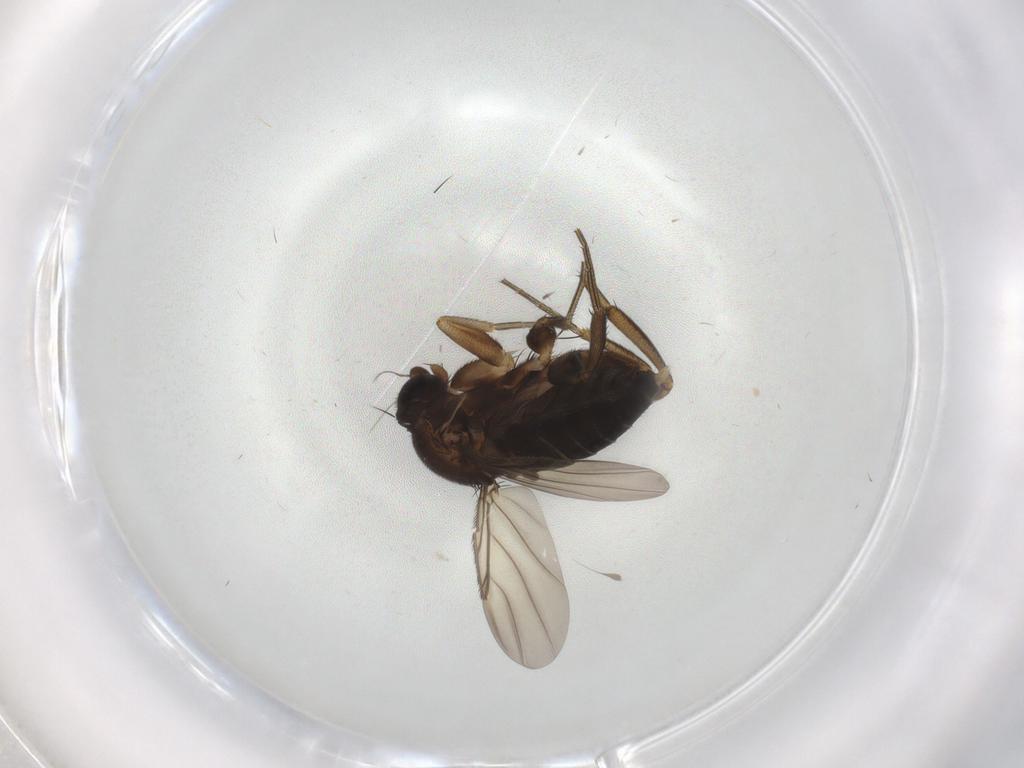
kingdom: Animalia
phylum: Arthropoda
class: Insecta
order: Diptera
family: Phoridae
